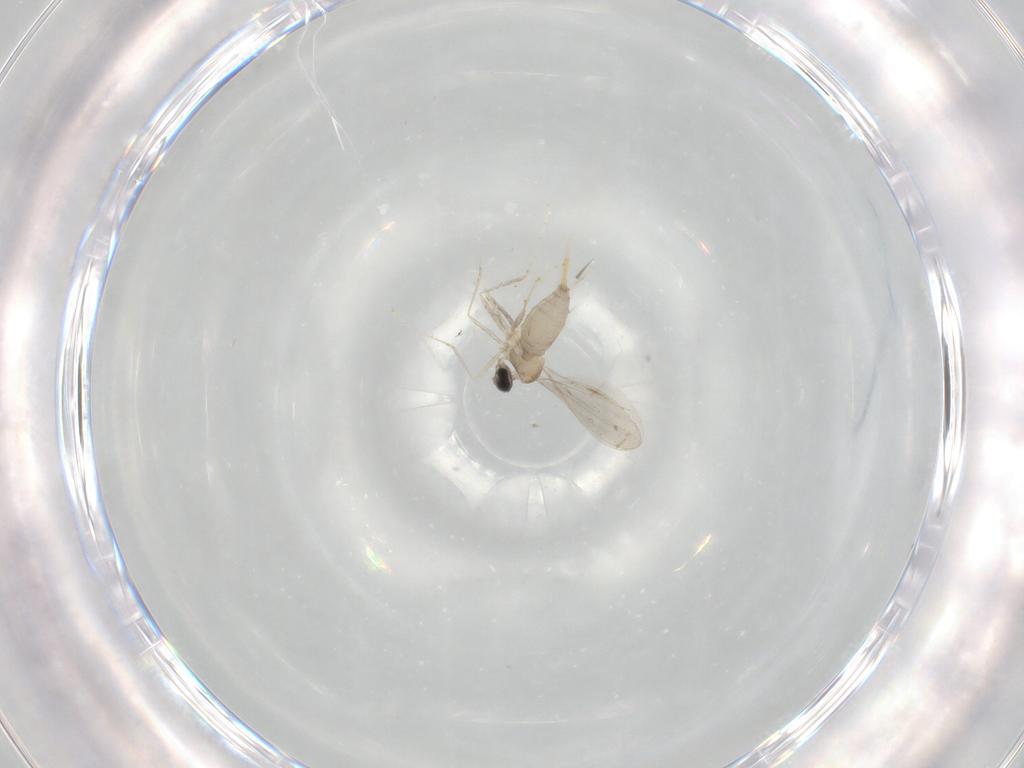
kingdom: Animalia
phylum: Arthropoda
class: Insecta
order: Diptera
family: Cecidomyiidae
